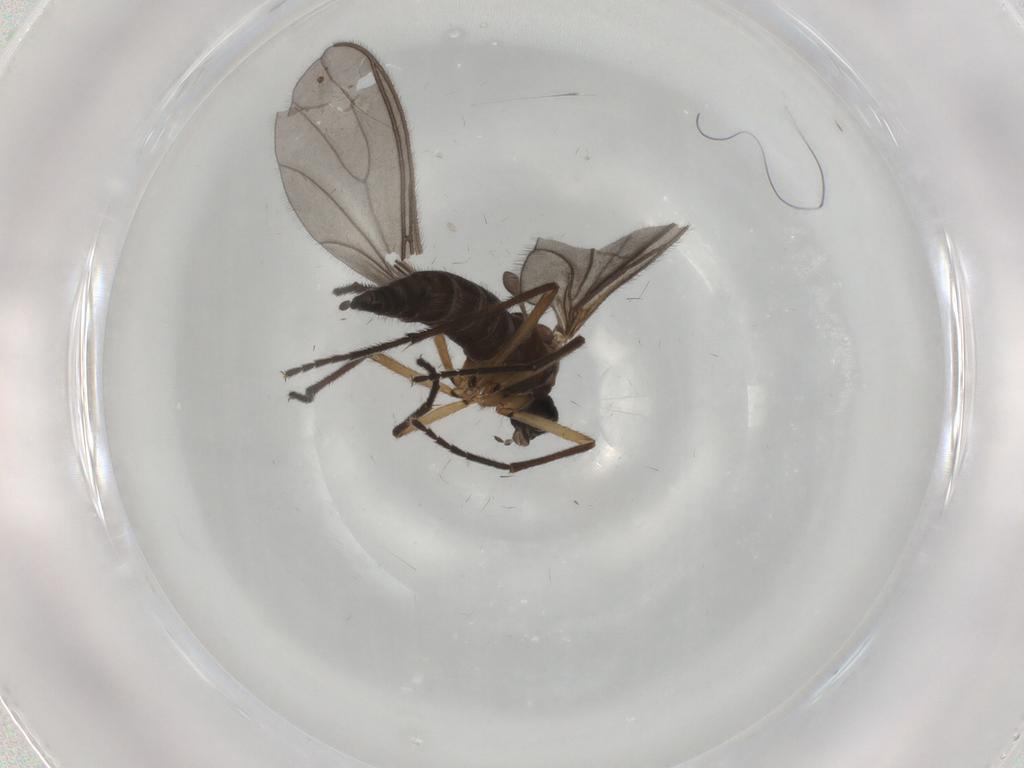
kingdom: Animalia
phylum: Arthropoda
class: Insecta
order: Diptera
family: Sciaridae
